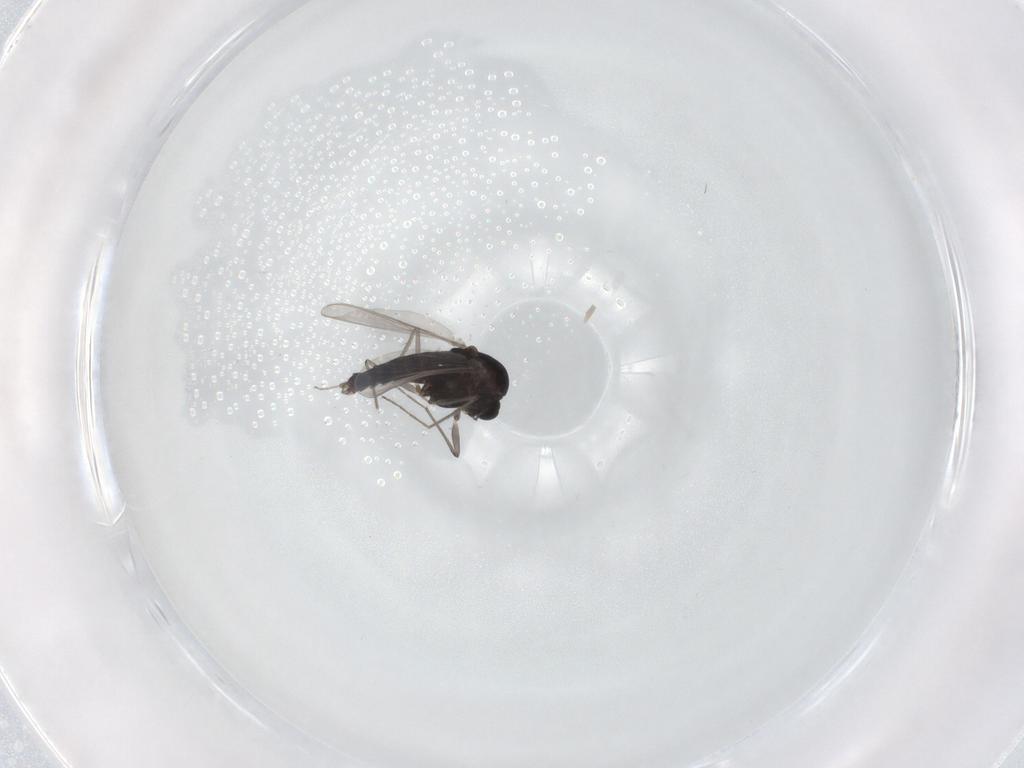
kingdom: Animalia
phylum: Arthropoda
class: Insecta
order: Diptera
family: Chironomidae
